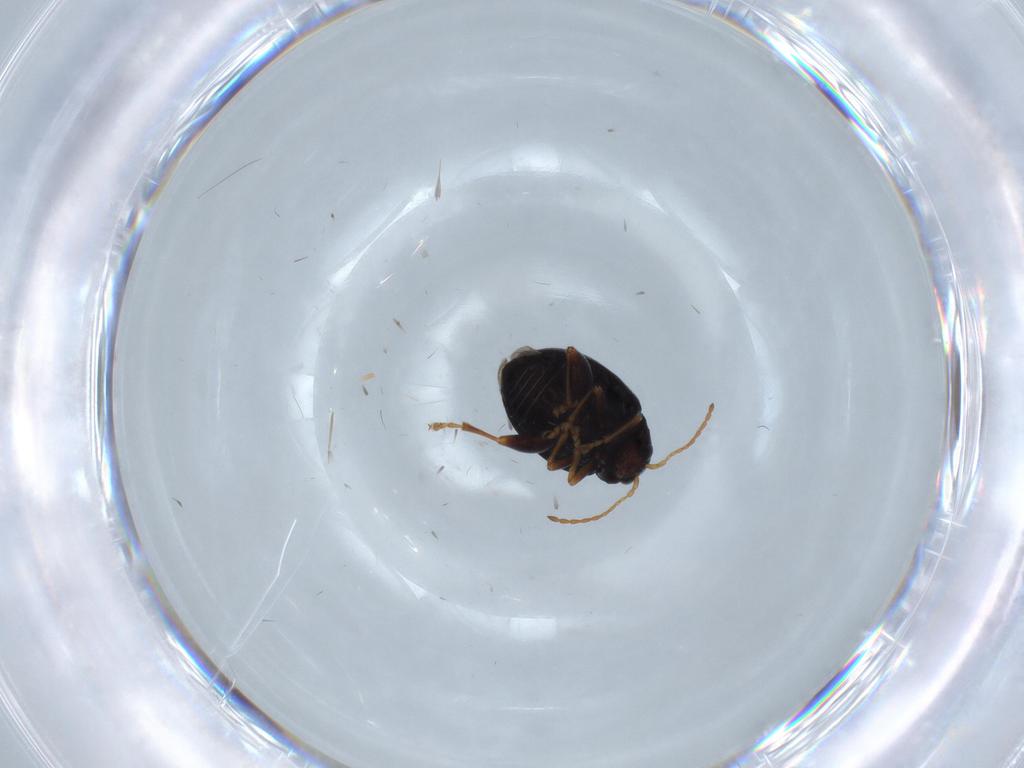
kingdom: Animalia
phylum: Arthropoda
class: Insecta
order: Coleoptera
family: Chrysomelidae
